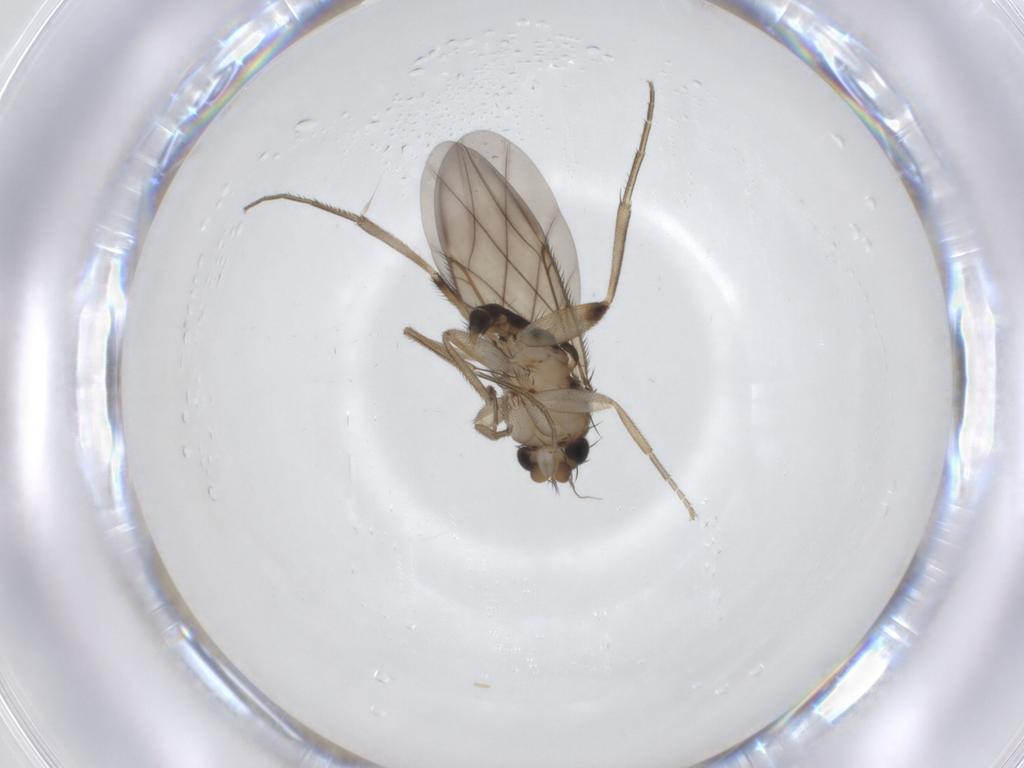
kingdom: Animalia
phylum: Arthropoda
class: Insecta
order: Diptera
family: Phoridae
